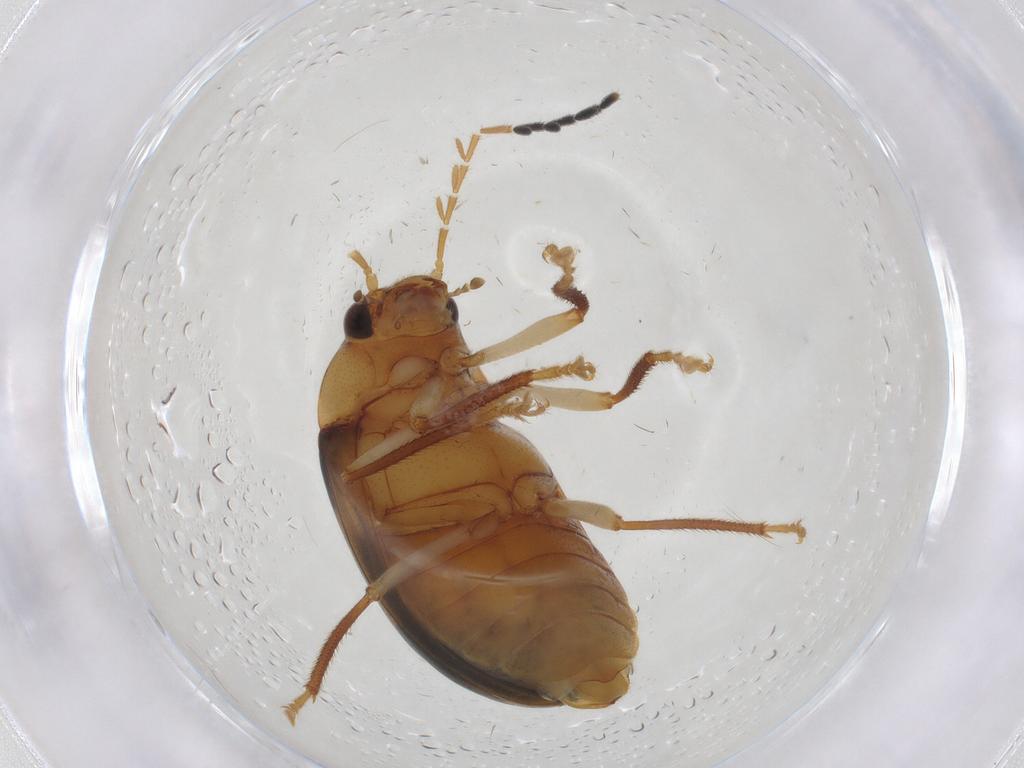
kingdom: Animalia
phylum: Arthropoda
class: Insecta
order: Coleoptera
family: Ptilodactylidae
